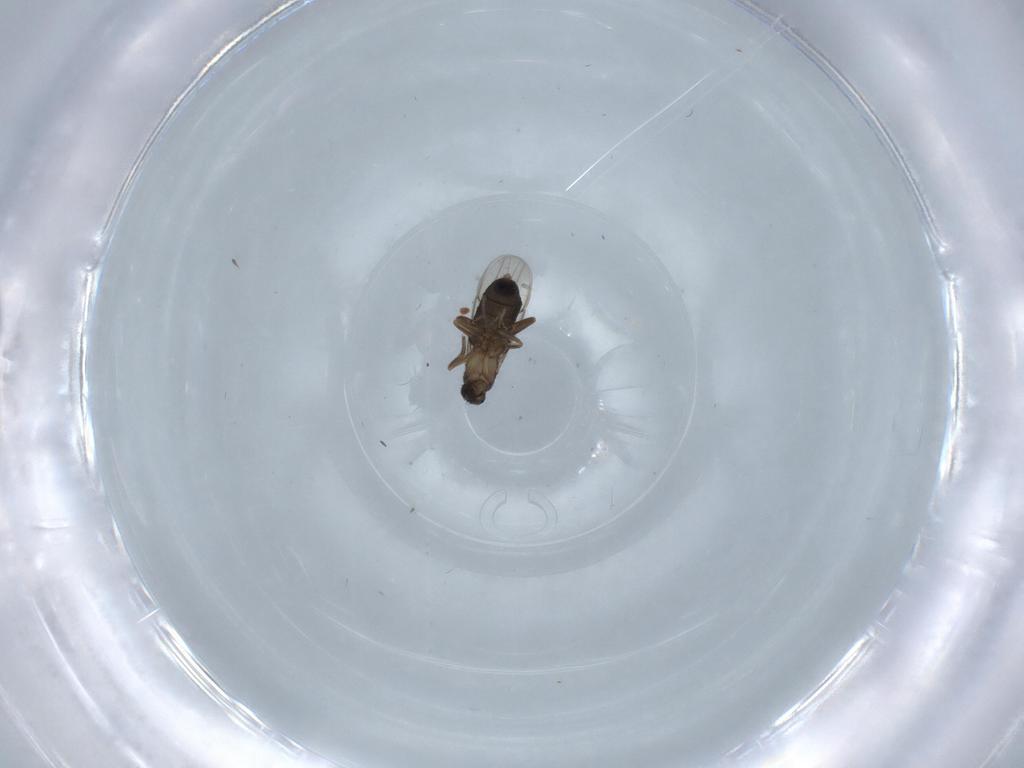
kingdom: Animalia
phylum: Arthropoda
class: Insecta
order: Diptera
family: Phoridae
